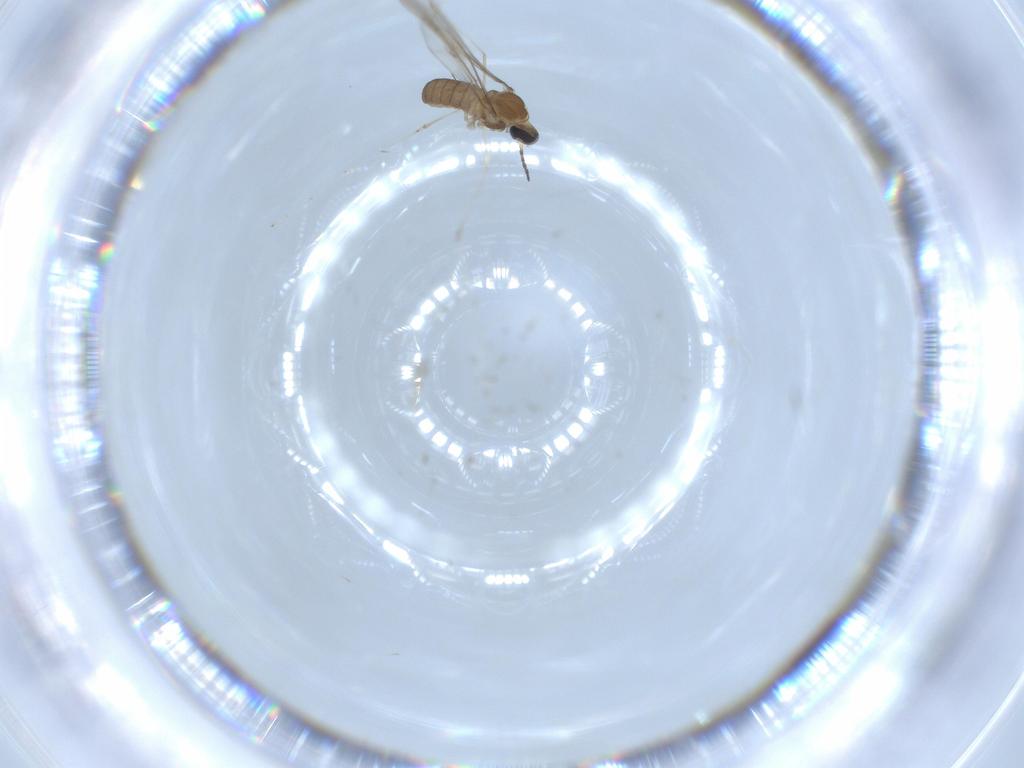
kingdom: Animalia
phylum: Arthropoda
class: Insecta
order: Diptera
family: Cecidomyiidae
